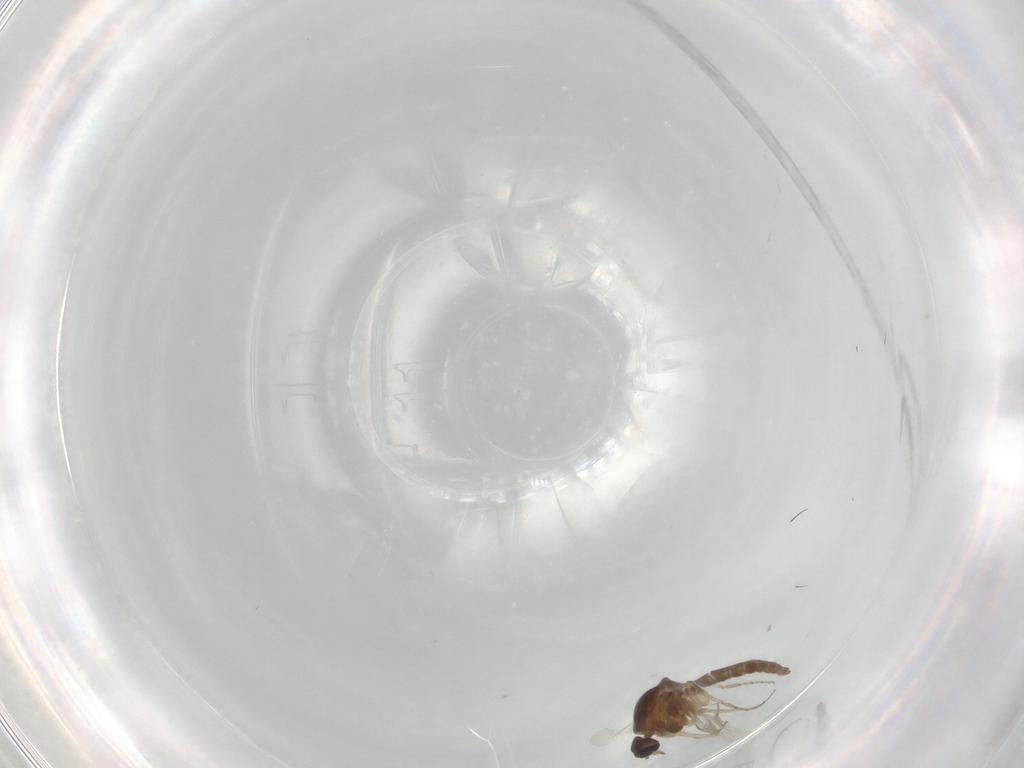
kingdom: Animalia
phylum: Arthropoda
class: Insecta
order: Diptera
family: Ceratopogonidae
